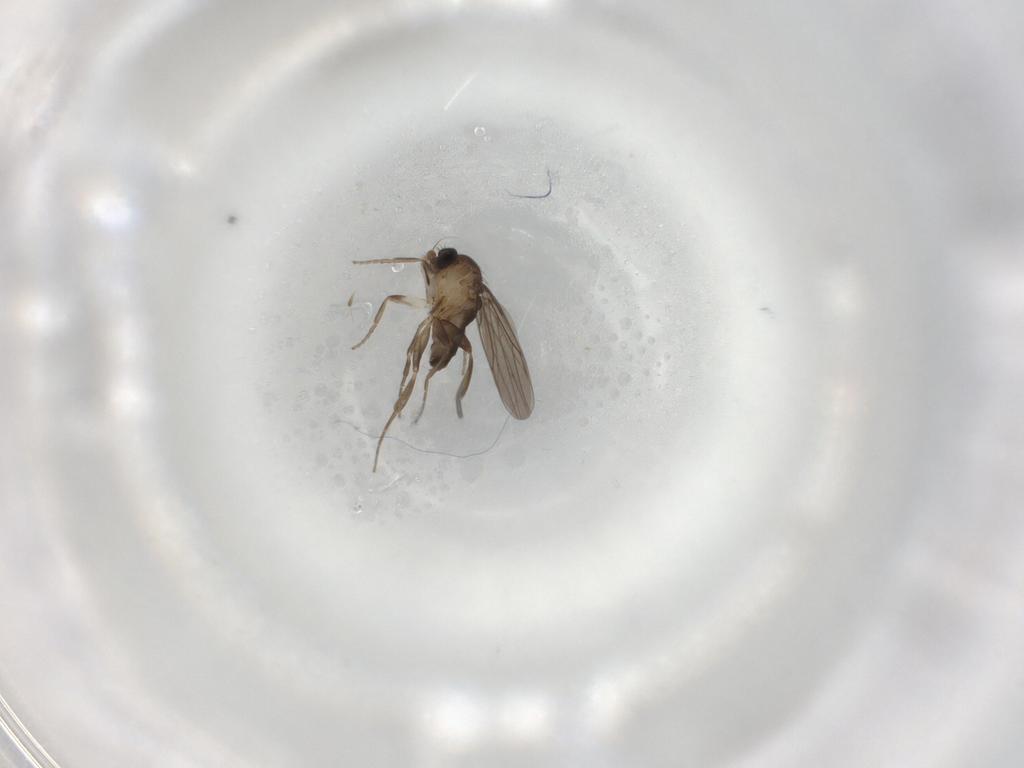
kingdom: Animalia
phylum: Arthropoda
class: Insecta
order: Diptera
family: Cecidomyiidae
